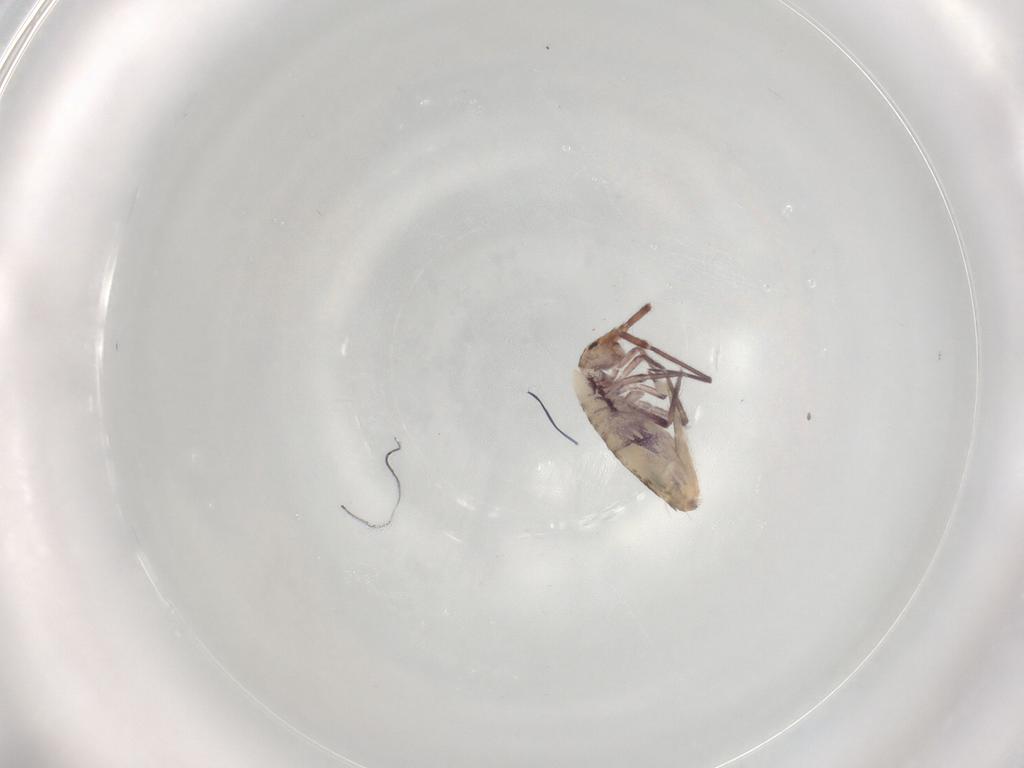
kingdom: Animalia
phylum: Arthropoda
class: Collembola
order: Entomobryomorpha
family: Entomobryidae
